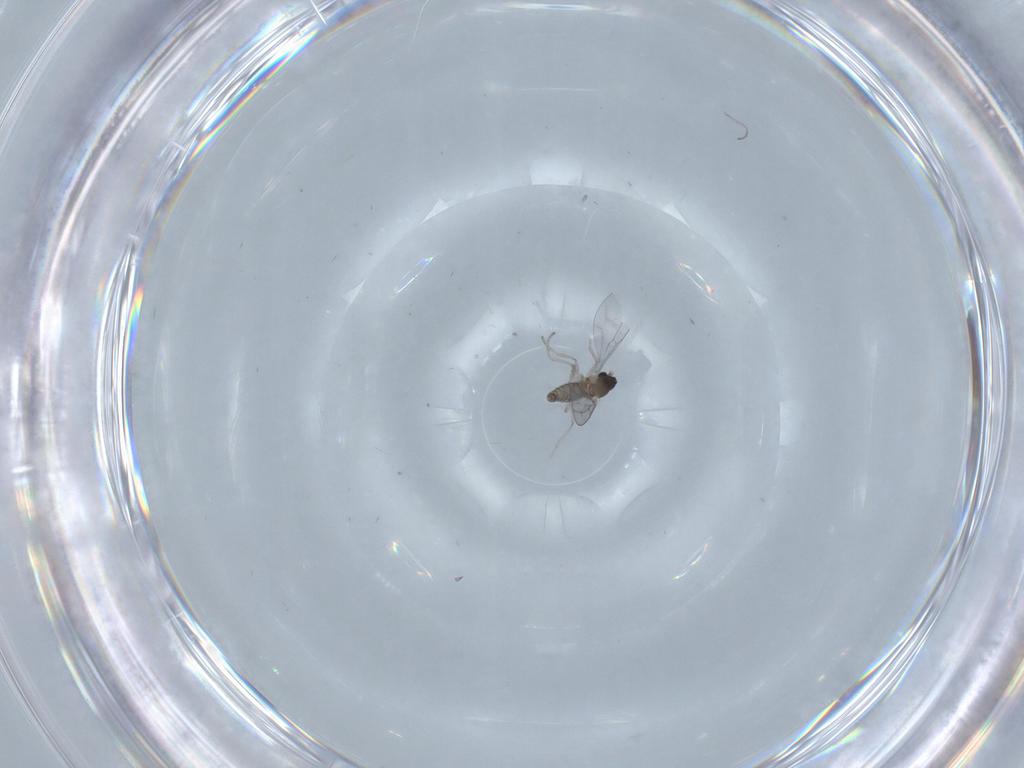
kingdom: Animalia
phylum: Arthropoda
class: Insecta
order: Diptera
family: Cecidomyiidae
